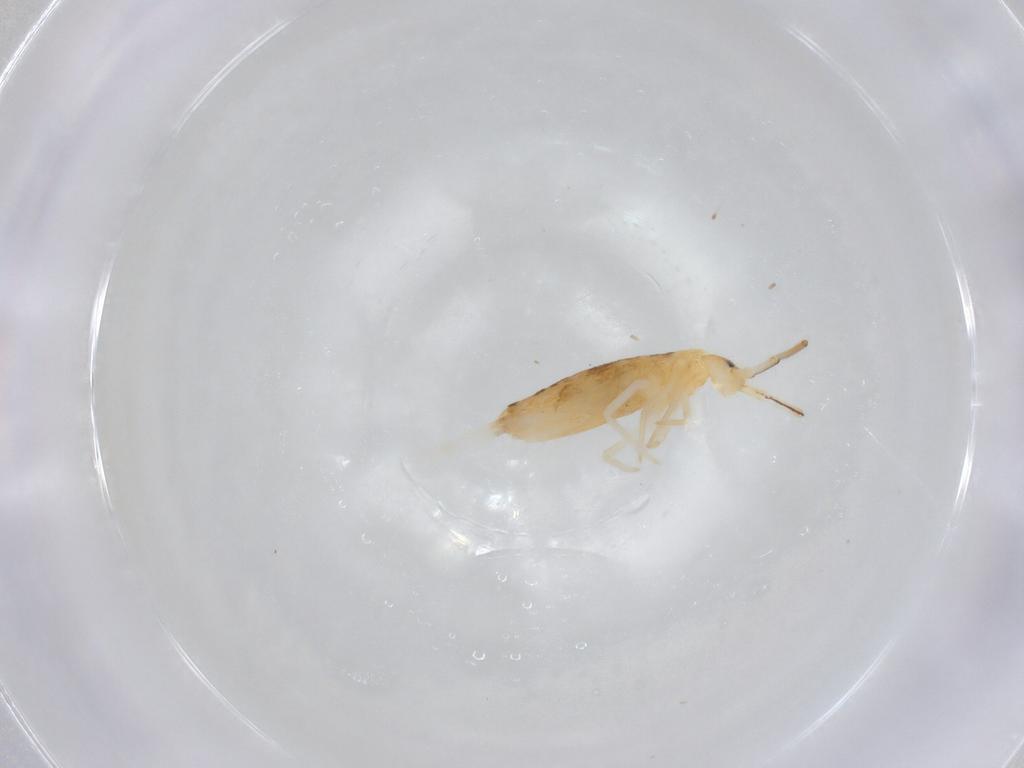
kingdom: Animalia
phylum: Arthropoda
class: Collembola
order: Entomobryomorpha
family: Entomobryidae
